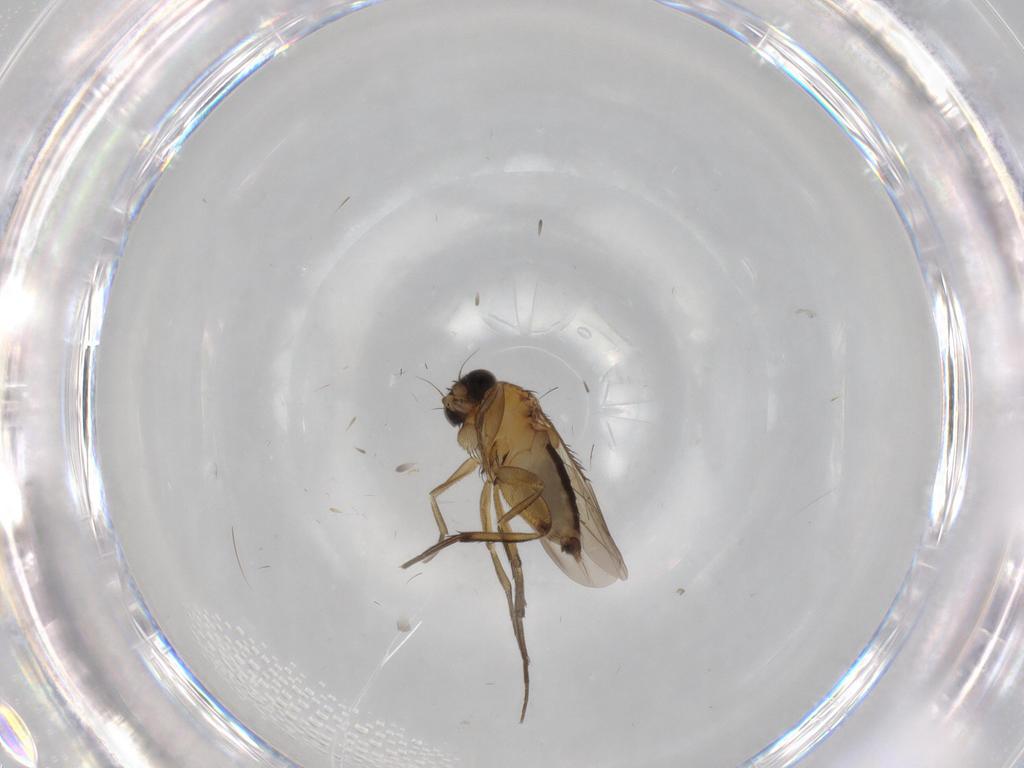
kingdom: Animalia
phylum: Arthropoda
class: Insecta
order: Diptera
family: Phoridae
